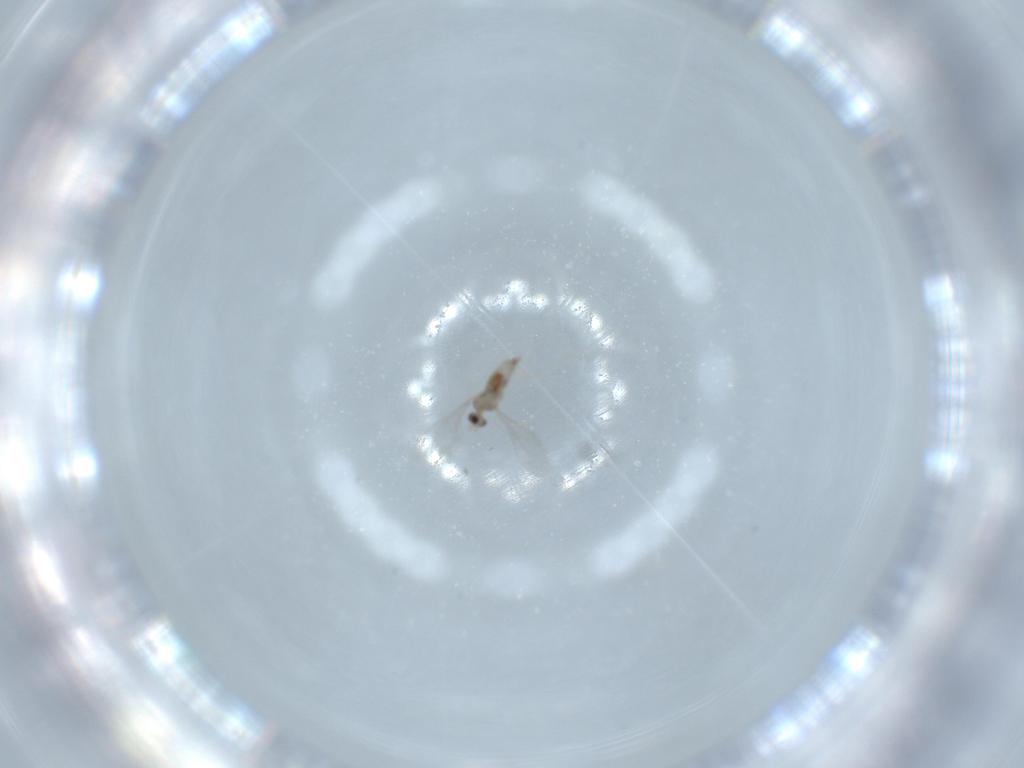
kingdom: Animalia
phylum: Arthropoda
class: Insecta
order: Diptera
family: Cecidomyiidae
